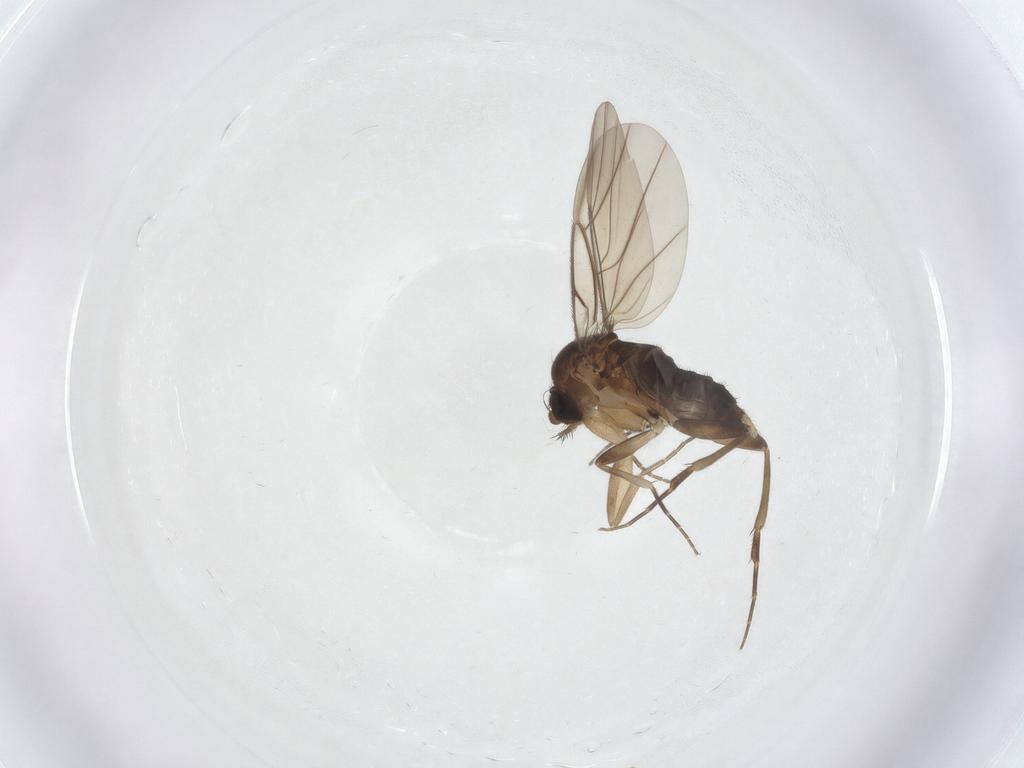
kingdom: Animalia
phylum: Arthropoda
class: Insecta
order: Diptera
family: Phoridae
